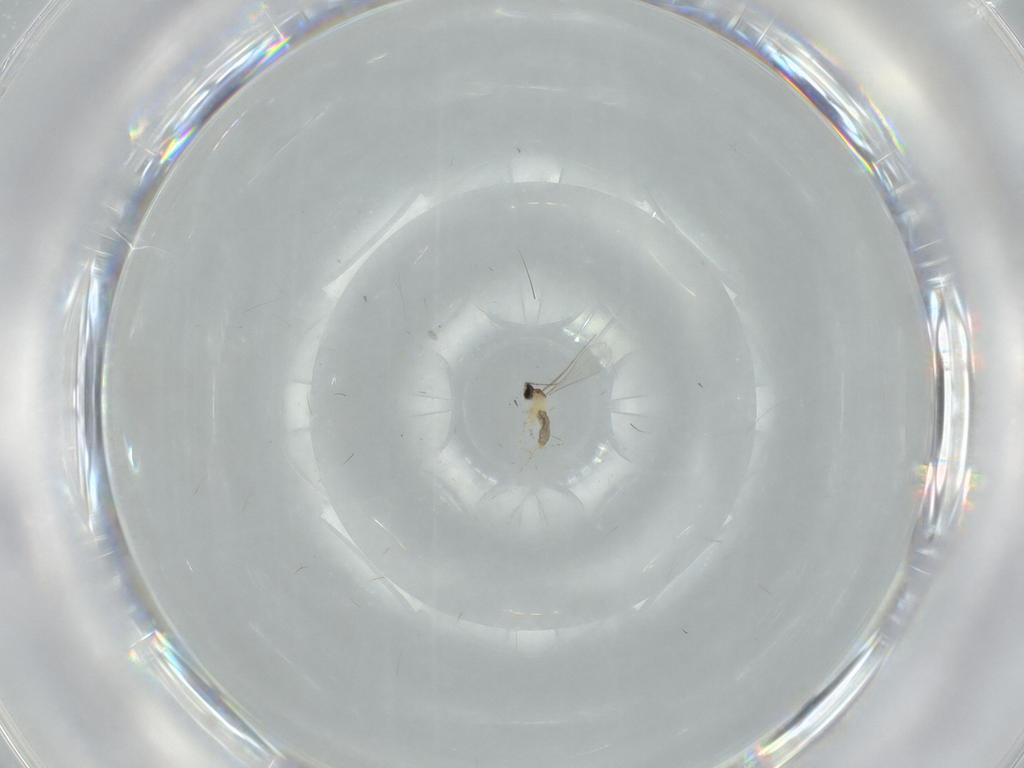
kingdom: Animalia
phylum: Arthropoda
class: Insecta
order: Diptera
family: Tabanidae
